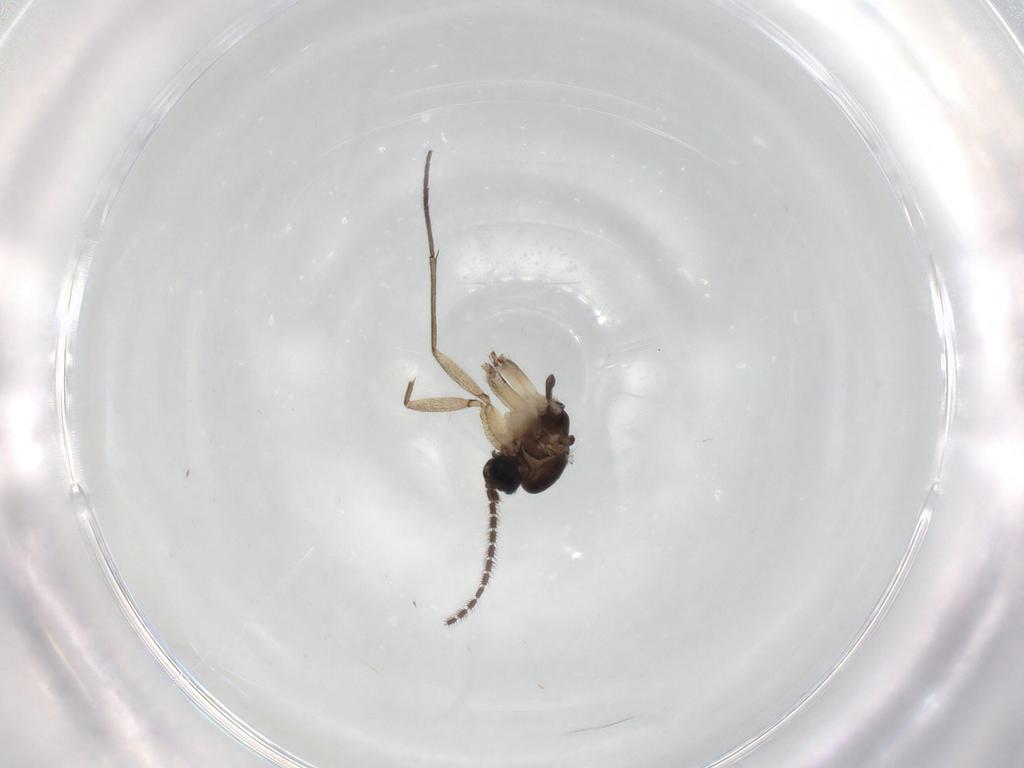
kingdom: Animalia
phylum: Arthropoda
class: Insecta
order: Diptera
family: Sciaridae
